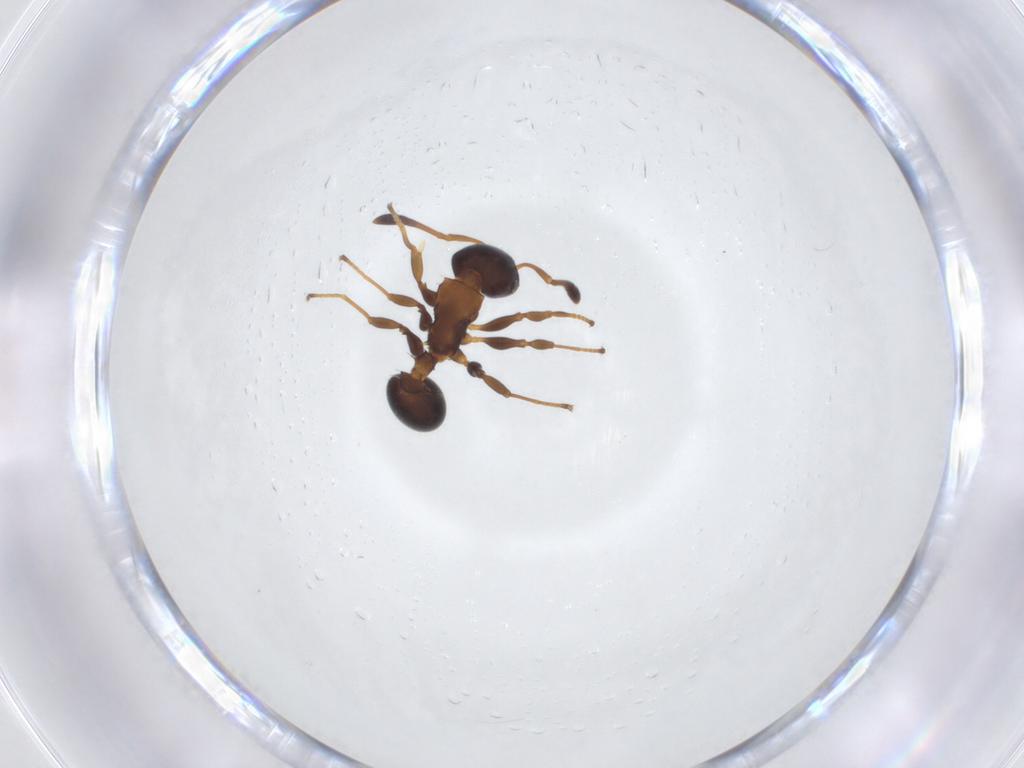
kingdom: Animalia
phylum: Arthropoda
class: Insecta
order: Hymenoptera
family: Formicidae
